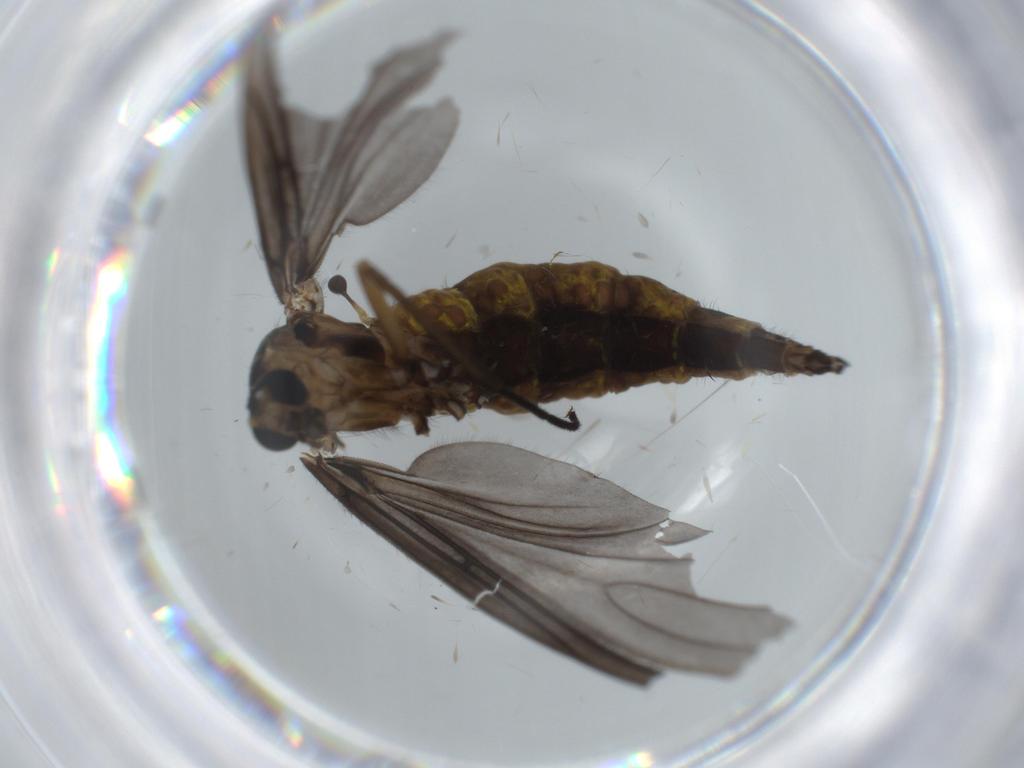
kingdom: Animalia
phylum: Arthropoda
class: Insecta
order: Diptera
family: Sciaridae
